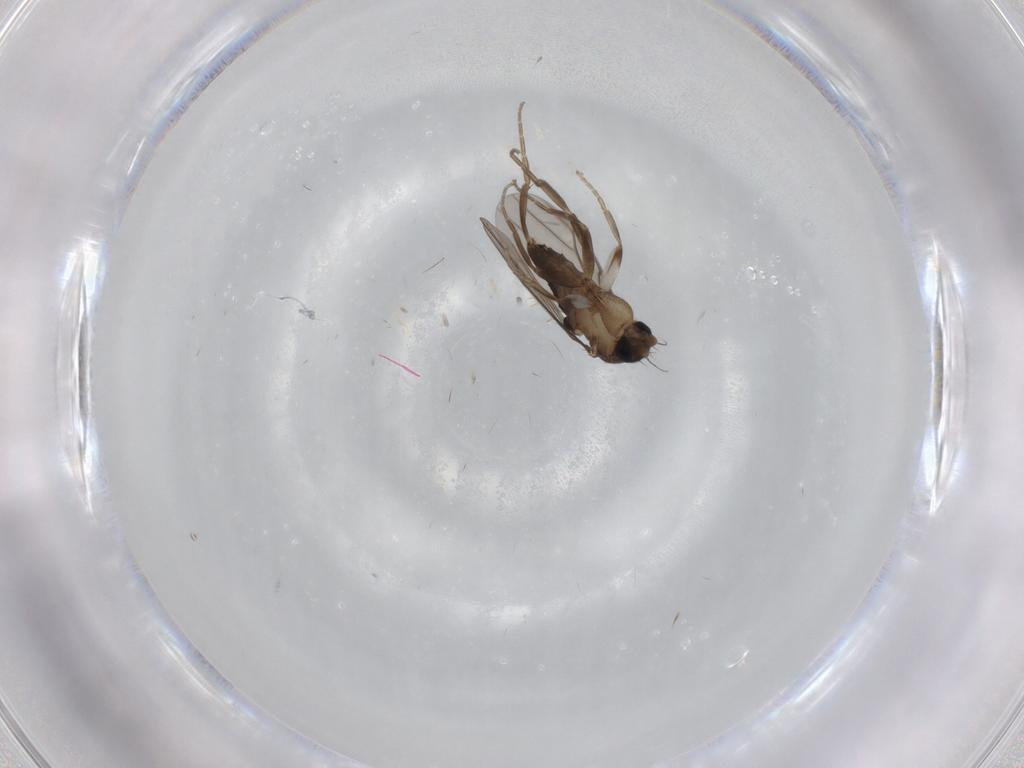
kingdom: Animalia
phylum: Arthropoda
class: Insecta
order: Diptera
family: Cecidomyiidae
